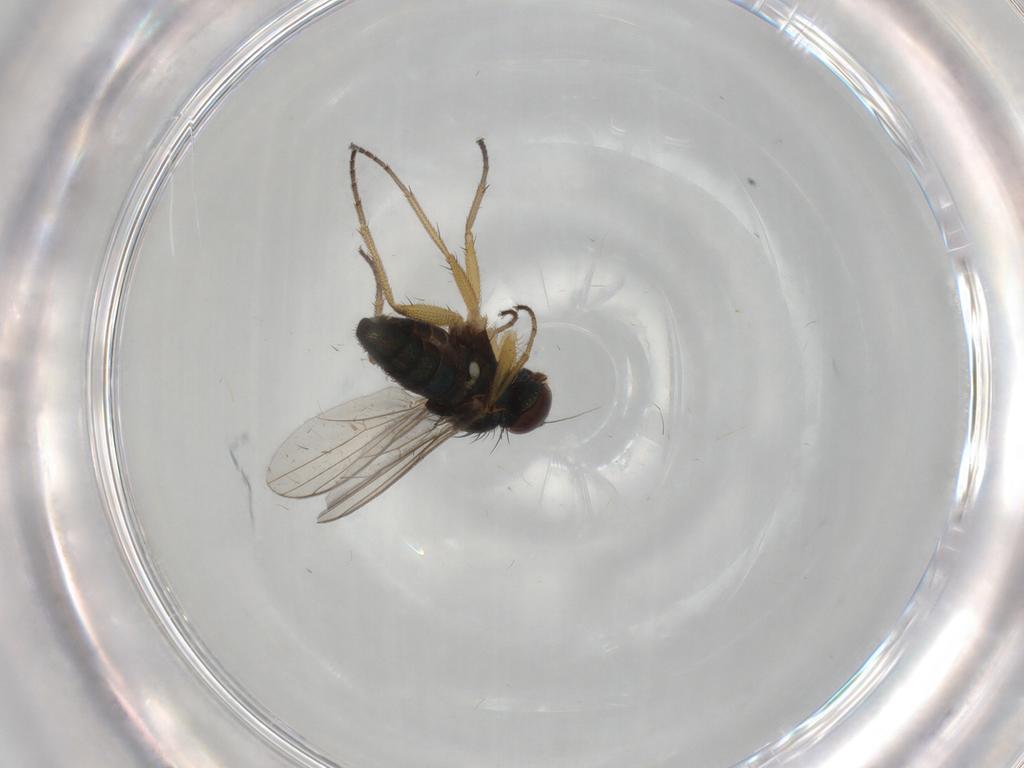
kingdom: Animalia
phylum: Arthropoda
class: Insecta
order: Diptera
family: Dolichopodidae
